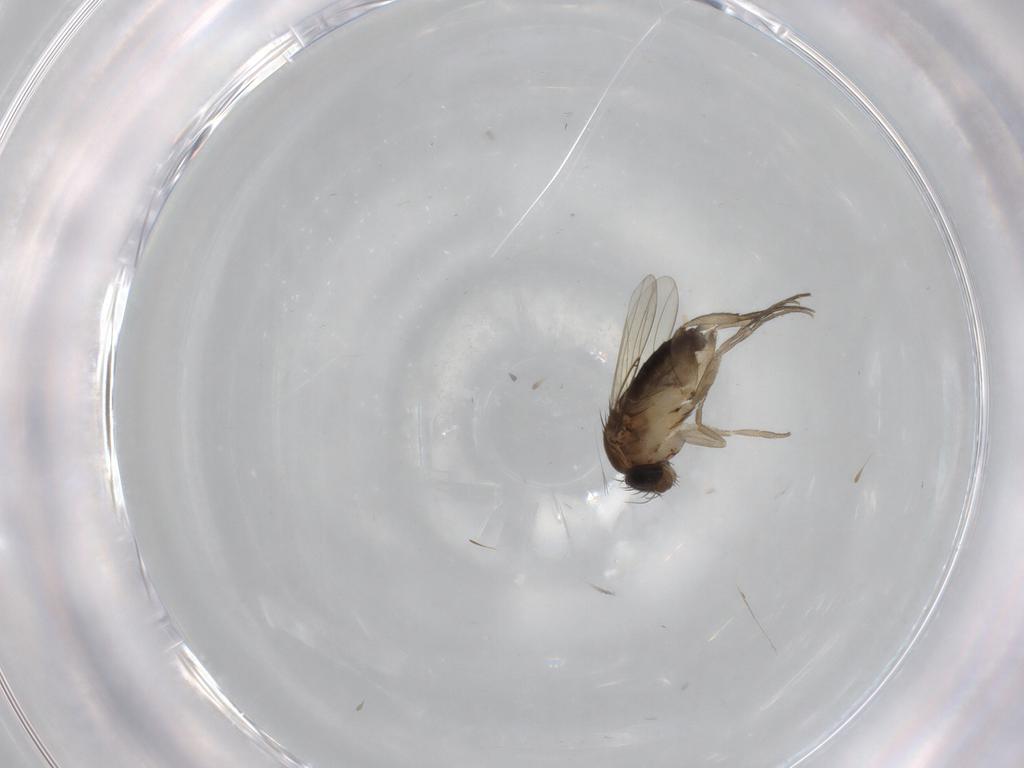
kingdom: Animalia
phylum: Arthropoda
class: Insecta
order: Diptera
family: Phoridae
